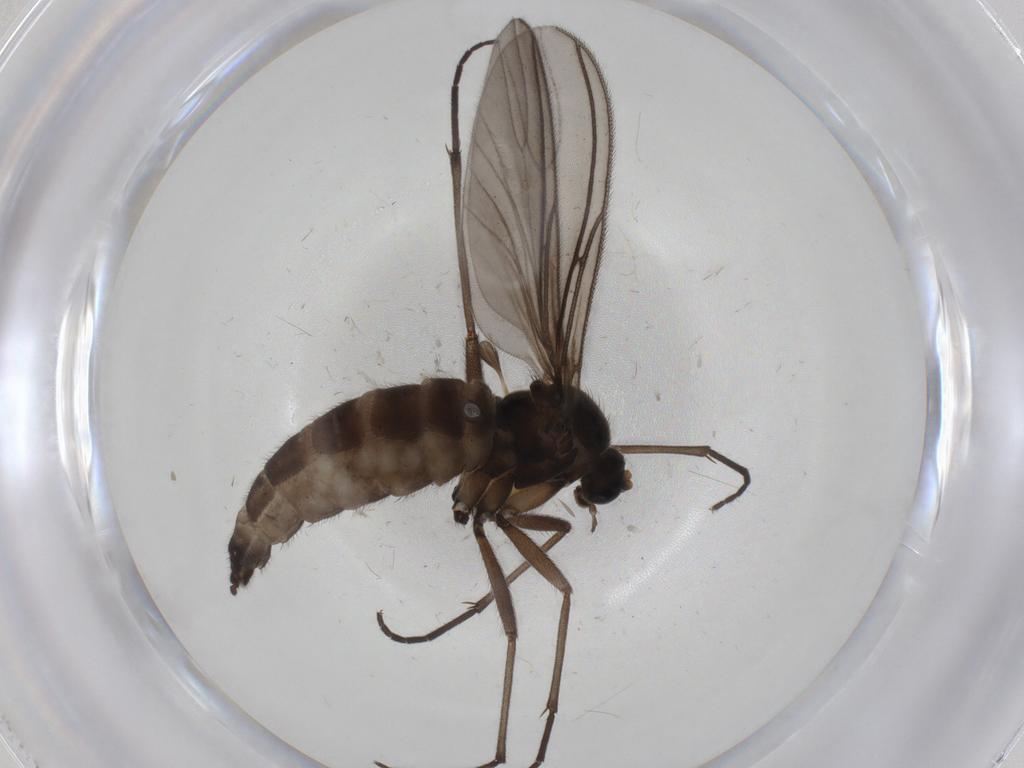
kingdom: Animalia
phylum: Arthropoda
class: Insecta
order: Diptera
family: Sciaridae
